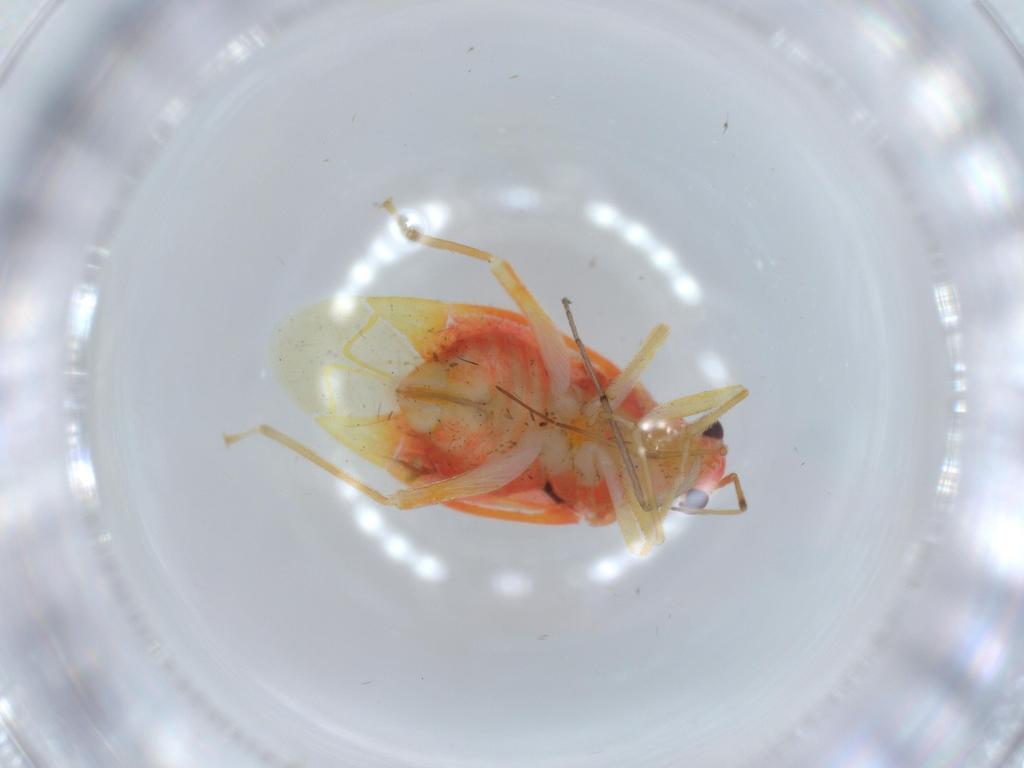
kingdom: Animalia
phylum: Arthropoda
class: Insecta
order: Hemiptera
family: Miridae
